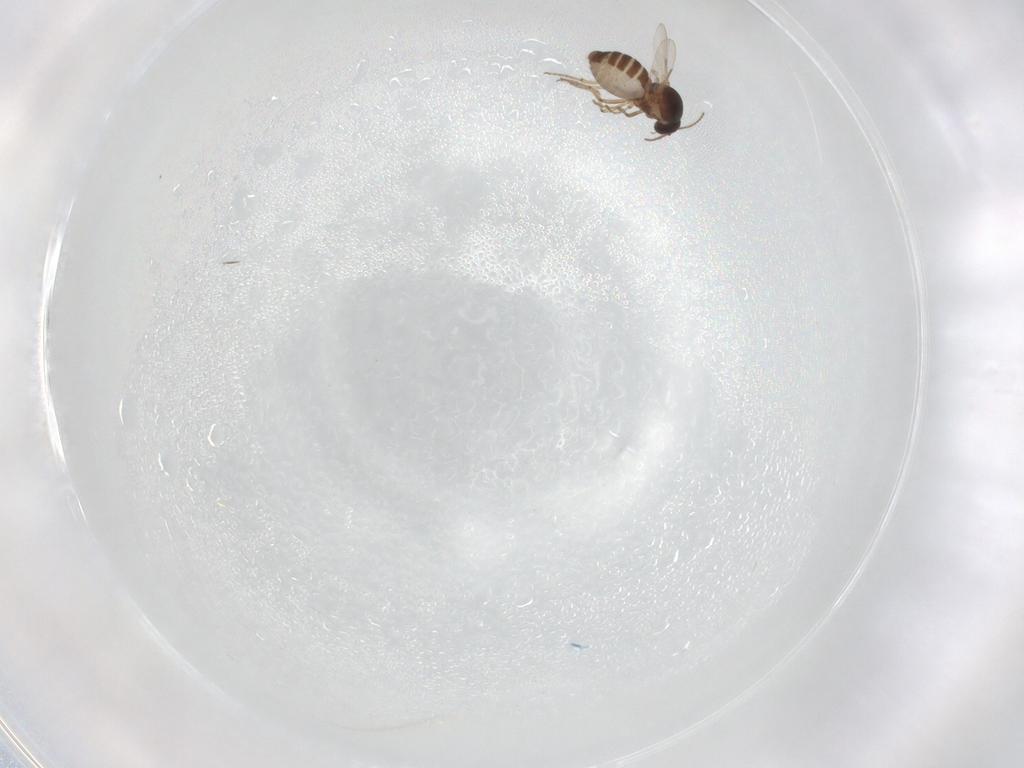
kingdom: Animalia
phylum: Arthropoda
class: Insecta
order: Diptera
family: Ceratopogonidae
